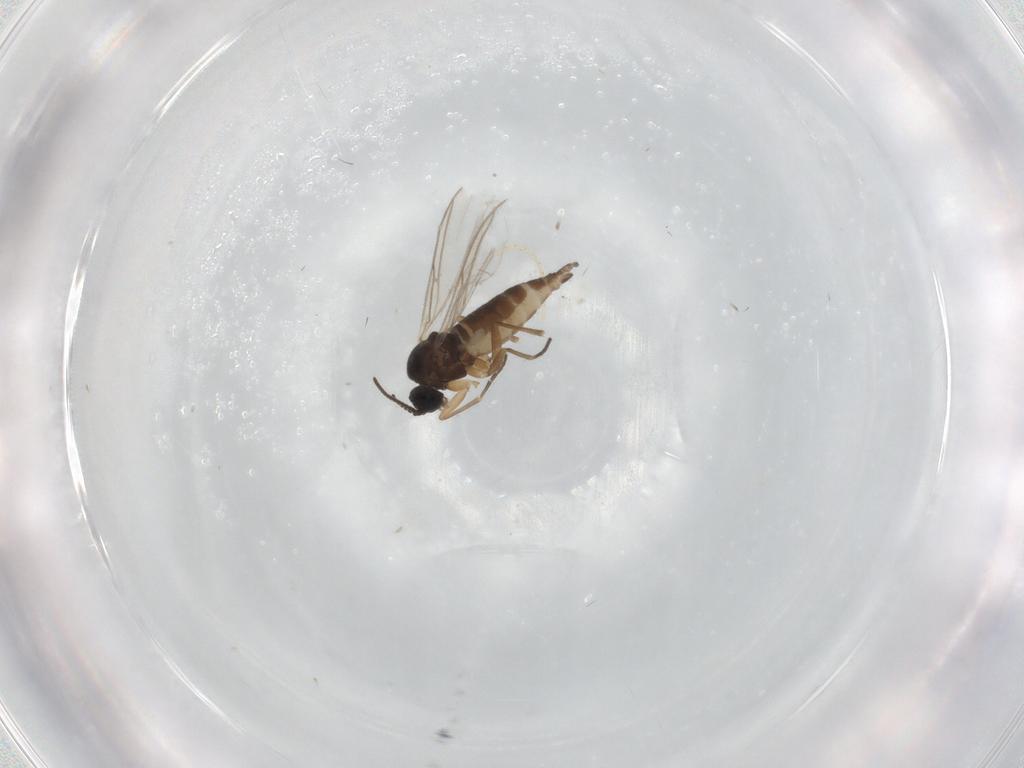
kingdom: Animalia
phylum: Arthropoda
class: Insecta
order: Diptera
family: Sciaridae
